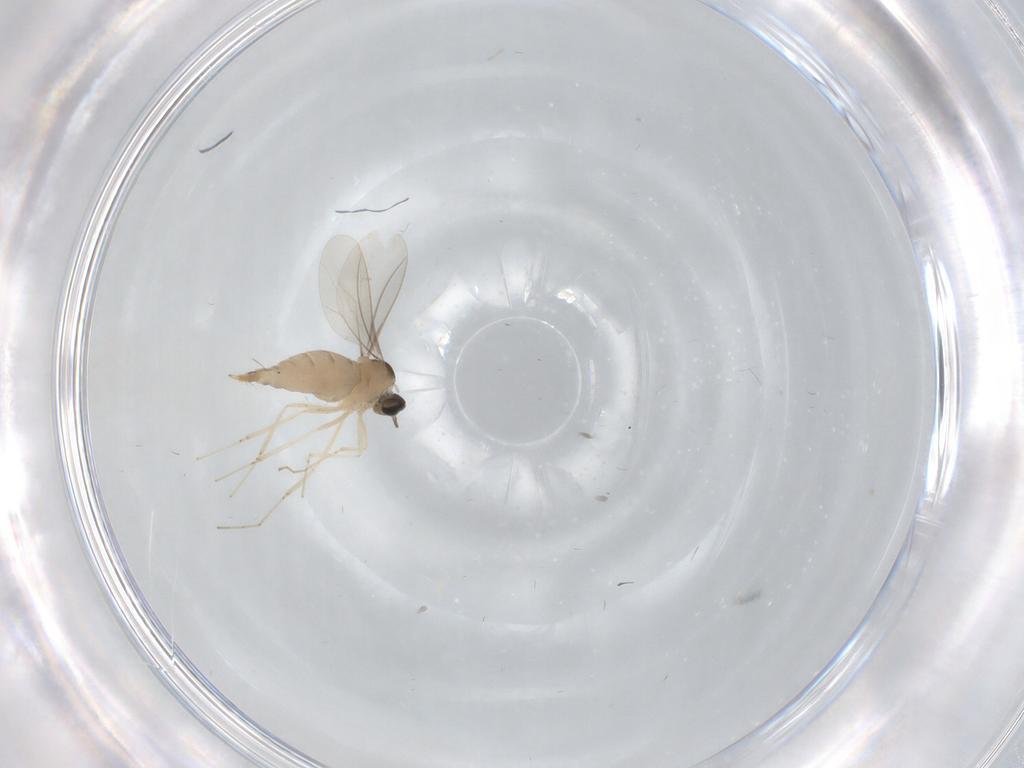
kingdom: Animalia
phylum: Arthropoda
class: Insecta
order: Diptera
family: Cecidomyiidae
